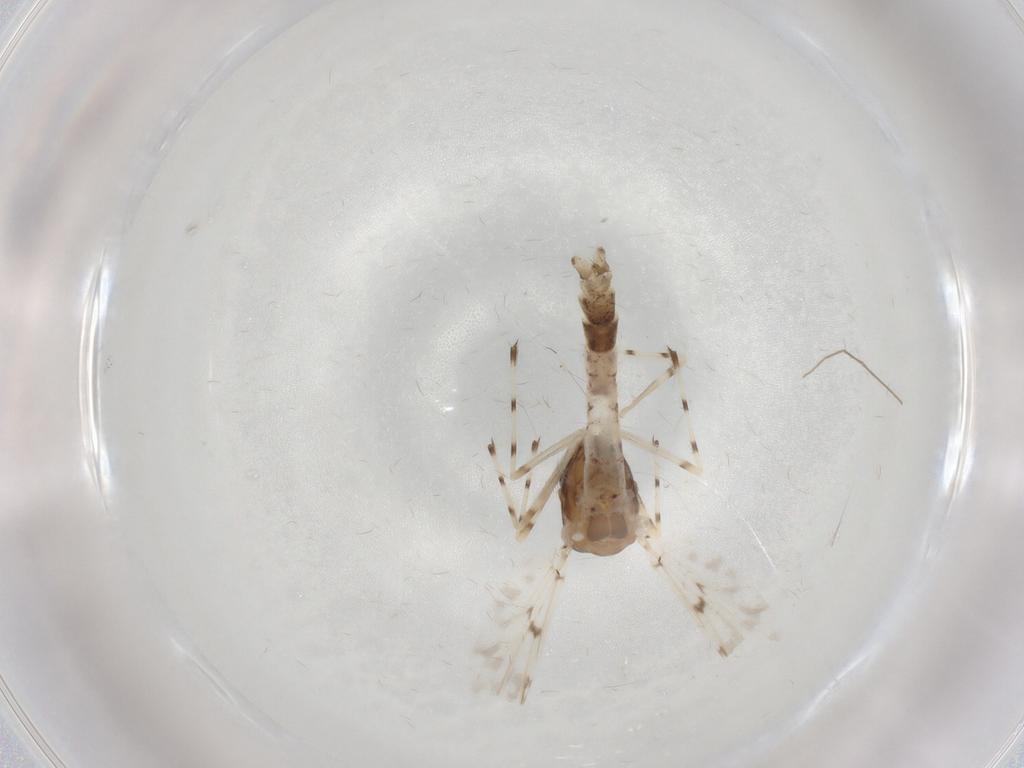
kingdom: Animalia
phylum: Arthropoda
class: Insecta
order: Diptera
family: Chironomidae
